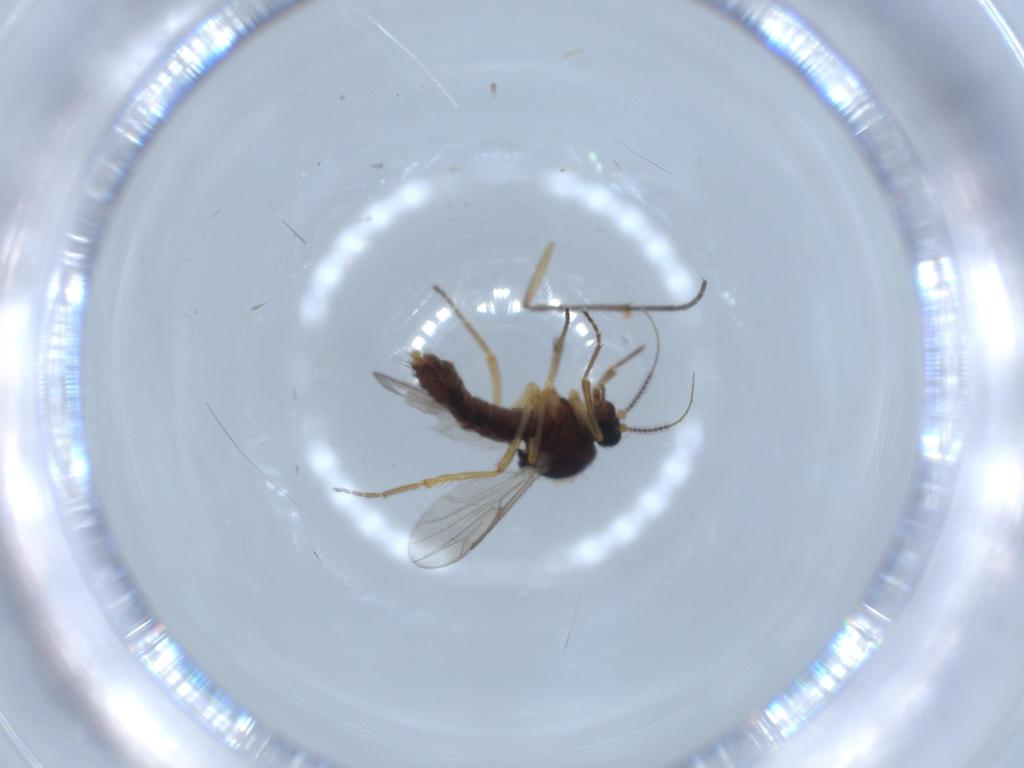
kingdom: Animalia
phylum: Arthropoda
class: Insecta
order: Diptera
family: Ceratopogonidae
